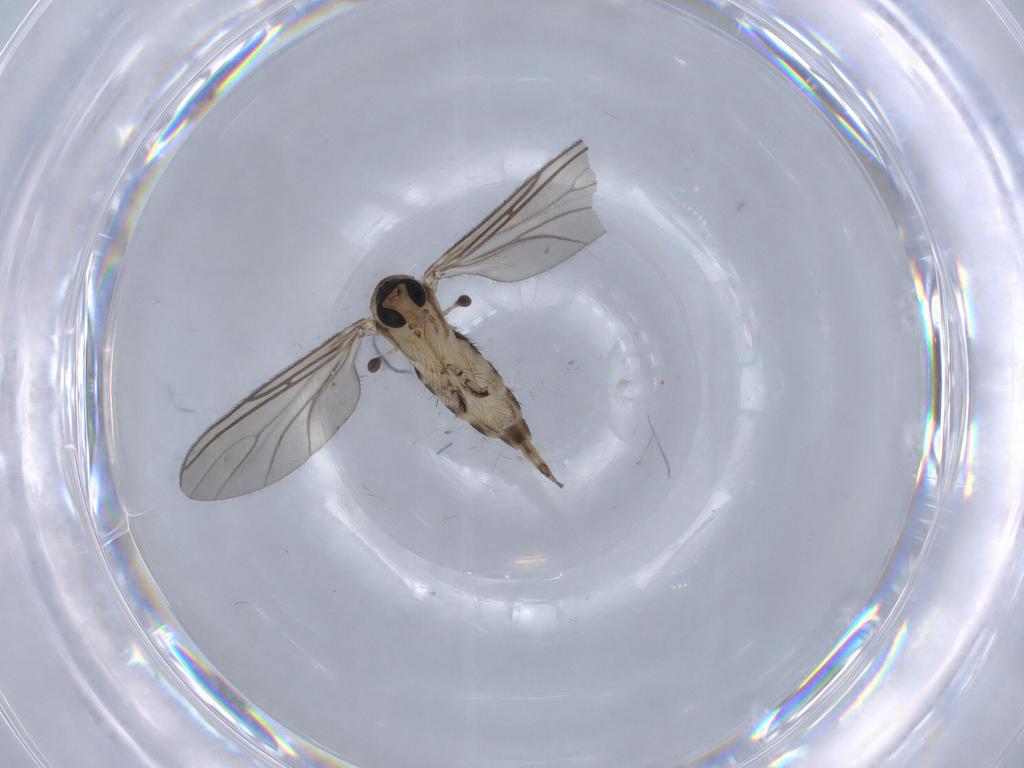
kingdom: Animalia
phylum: Arthropoda
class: Insecta
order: Diptera
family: Sciaridae
